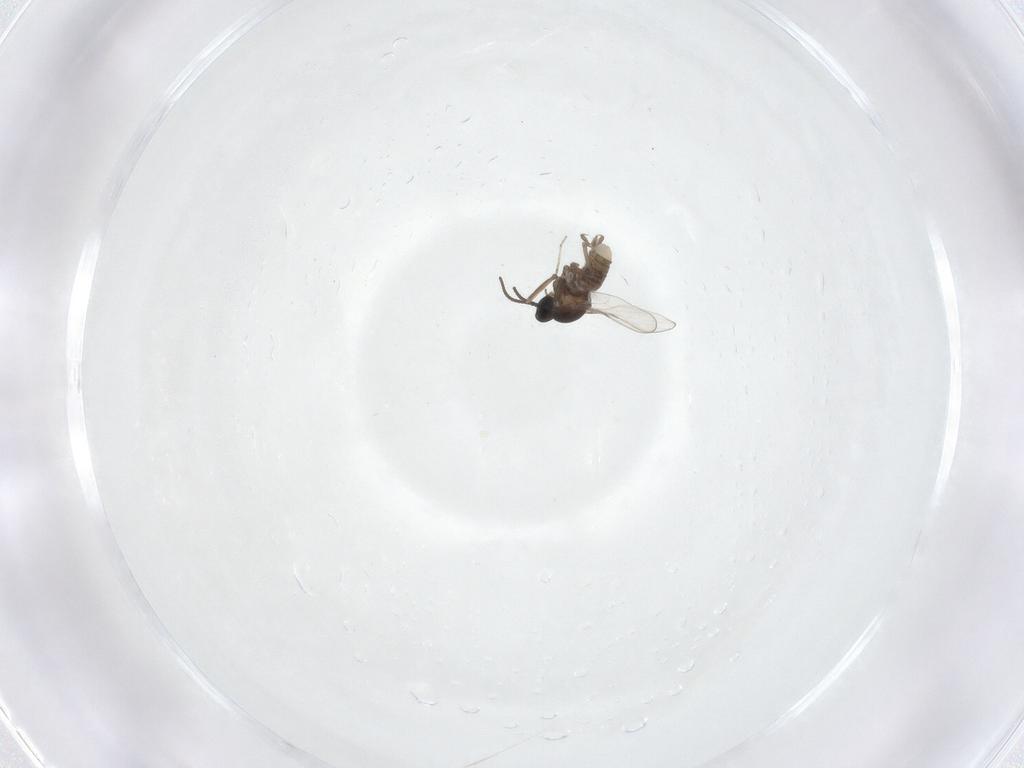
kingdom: Animalia
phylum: Arthropoda
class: Insecta
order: Diptera
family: Cecidomyiidae
